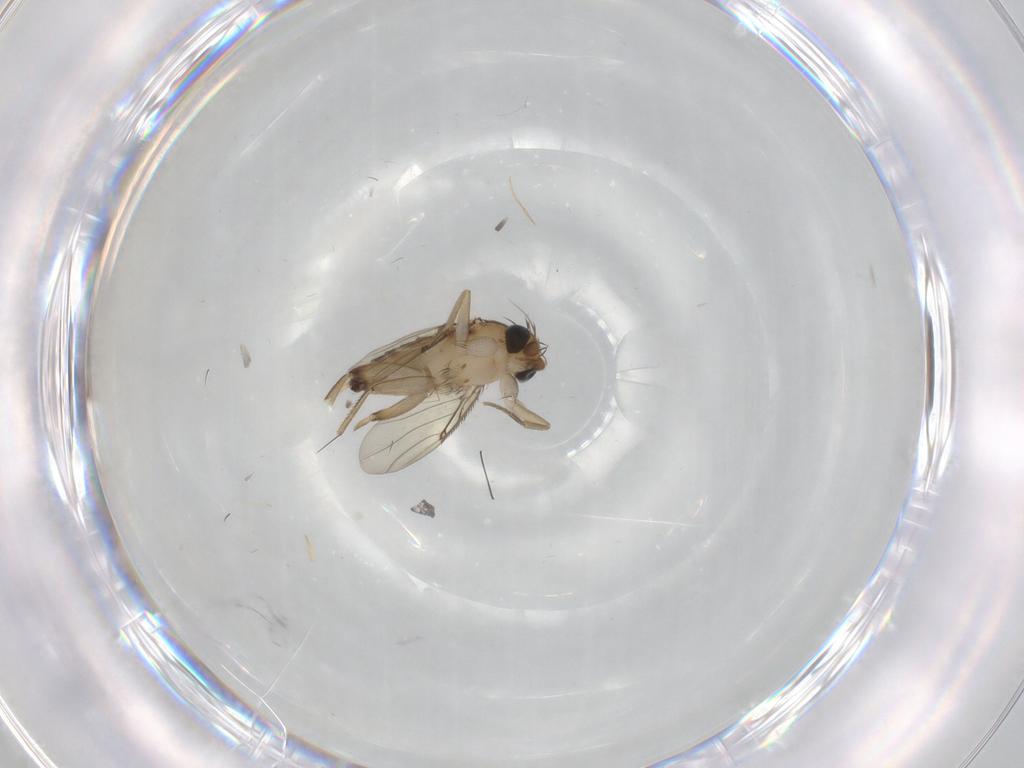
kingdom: Animalia
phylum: Arthropoda
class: Insecta
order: Diptera
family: Phoridae
